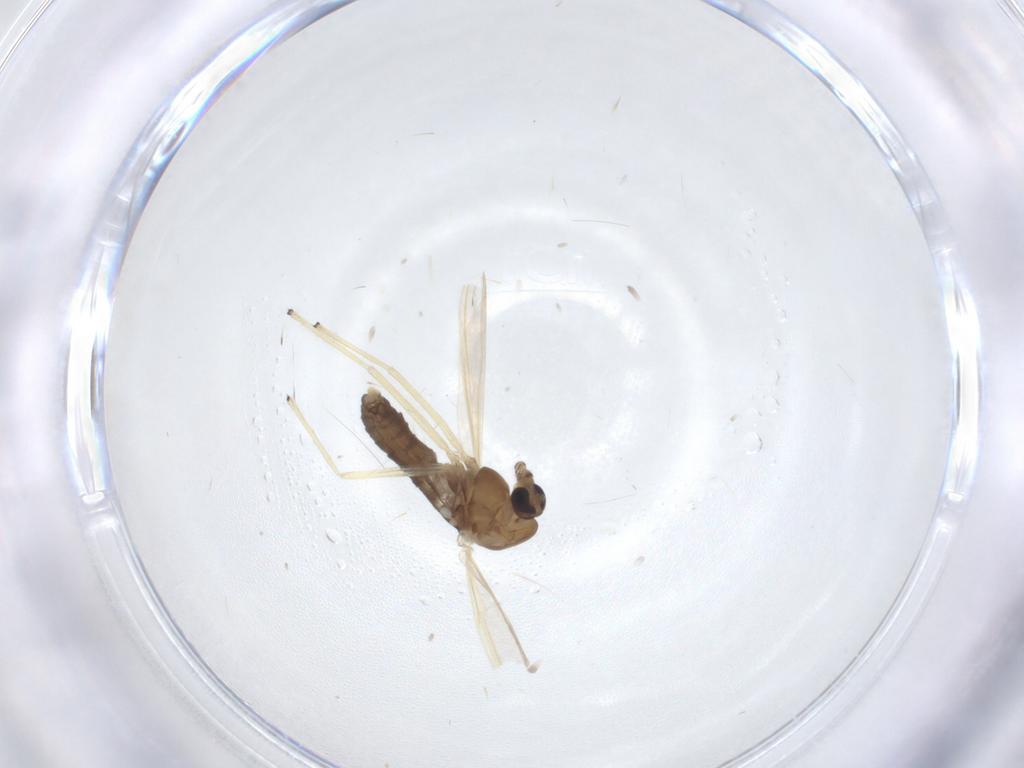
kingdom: Animalia
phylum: Arthropoda
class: Insecta
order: Diptera
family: Chironomidae
